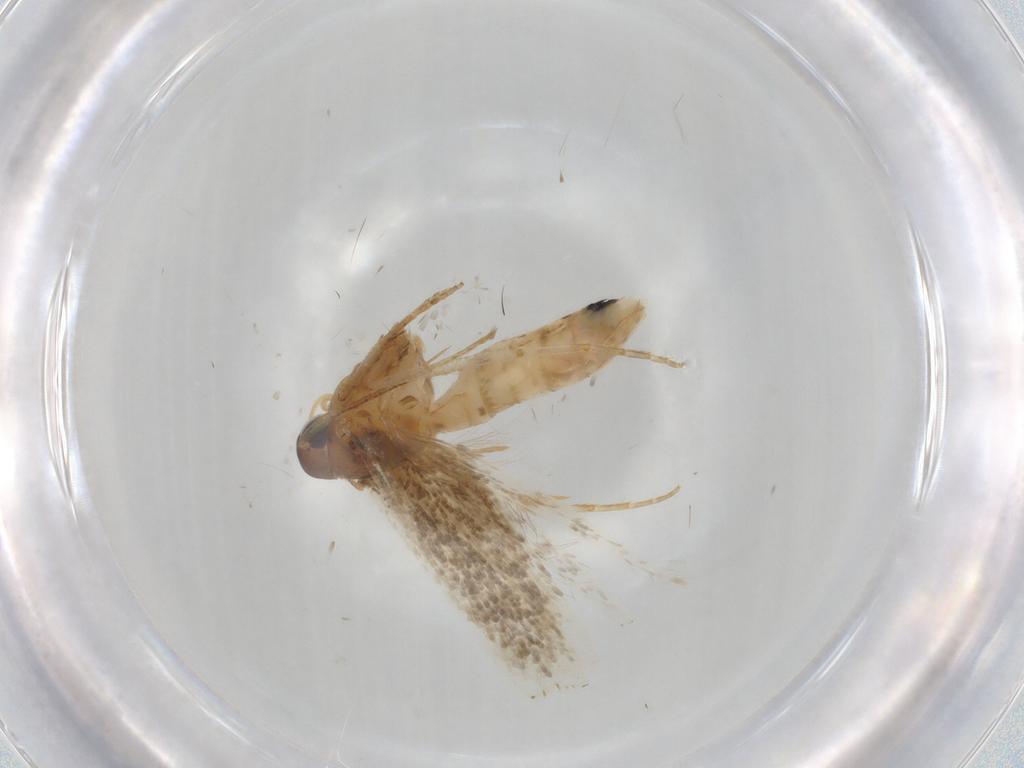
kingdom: Animalia
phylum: Arthropoda
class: Insecta
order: Lepidoptera
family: Cosmopterigidae
